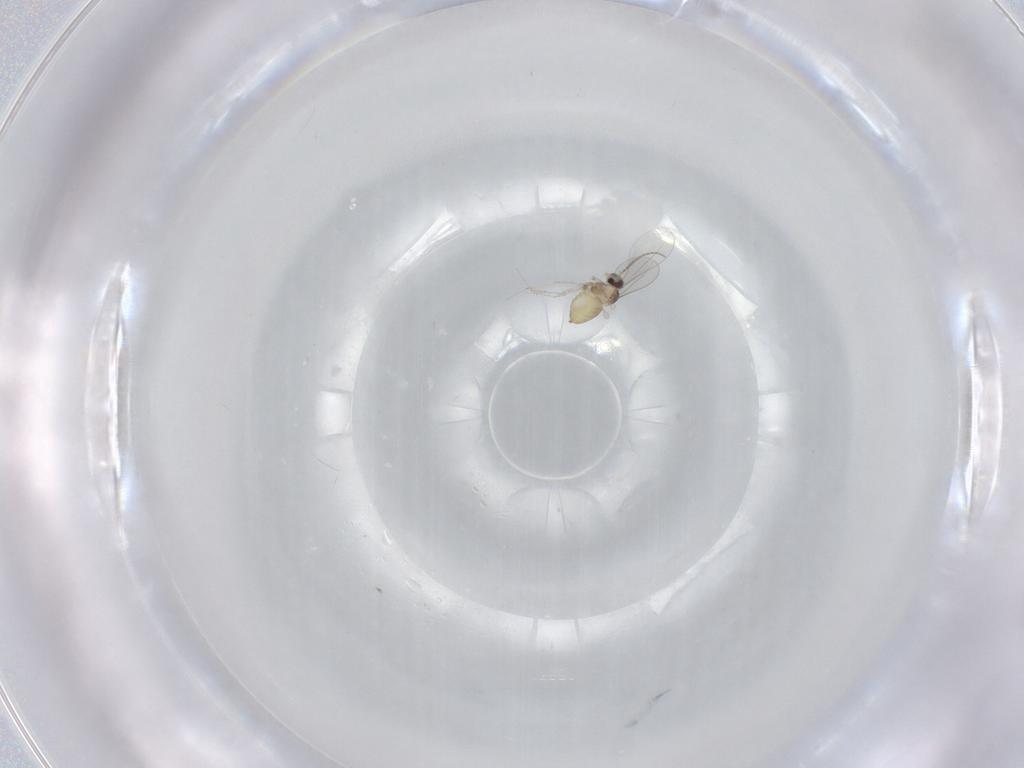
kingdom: Animalia
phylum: Arthropoda
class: Insecta
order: Diptera
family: Cecidomyiidae
